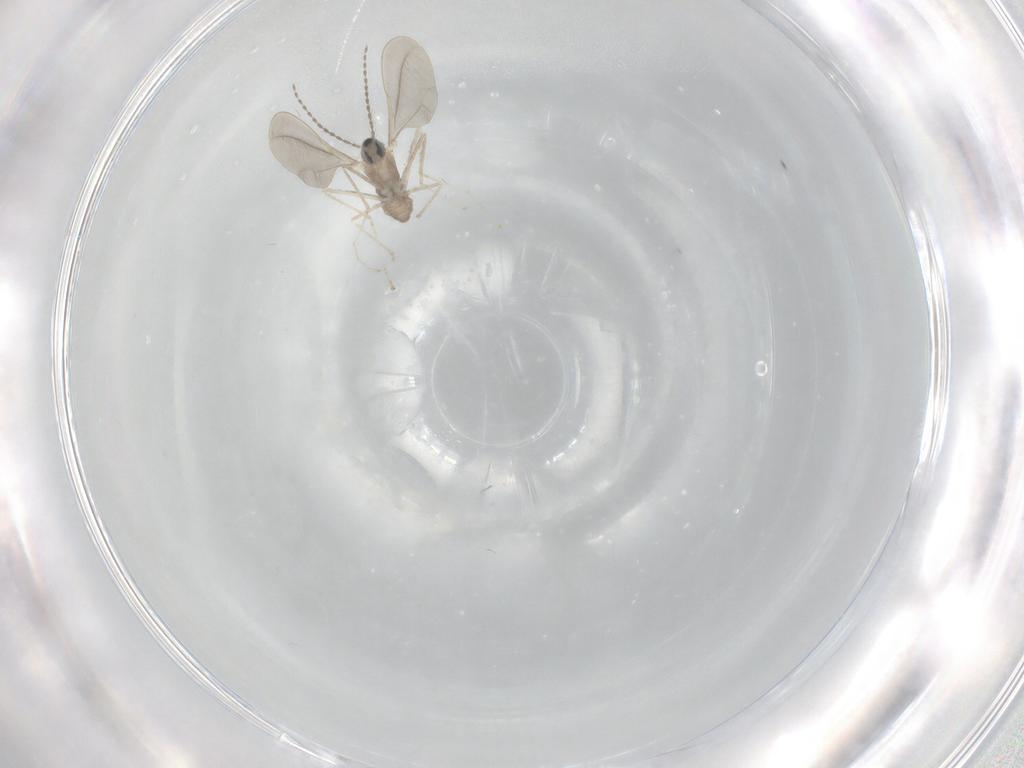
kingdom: Animalia
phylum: Arthropoda
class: Insecta
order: Diptera
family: Cecidomyiidae
